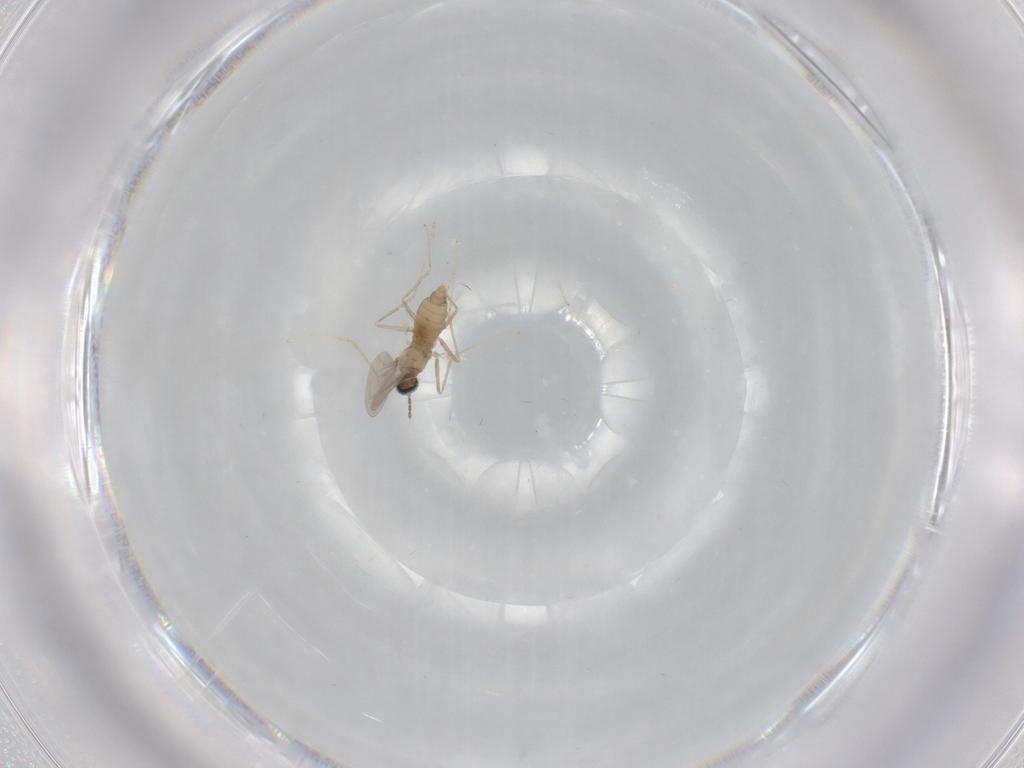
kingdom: Animalia
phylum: Arthropoda
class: Insecta
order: Diptera
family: Cecidomyiidae
